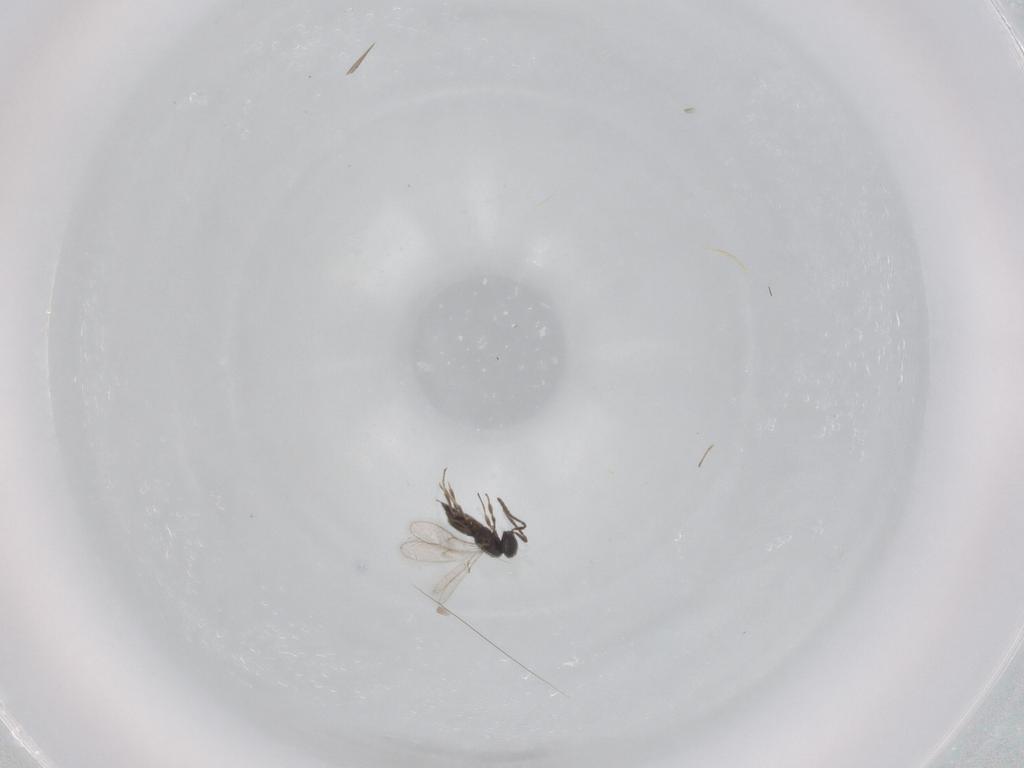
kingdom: Animalia
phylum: Arthropoda
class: Insecta
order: Hymenoptera
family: Scelionidae
